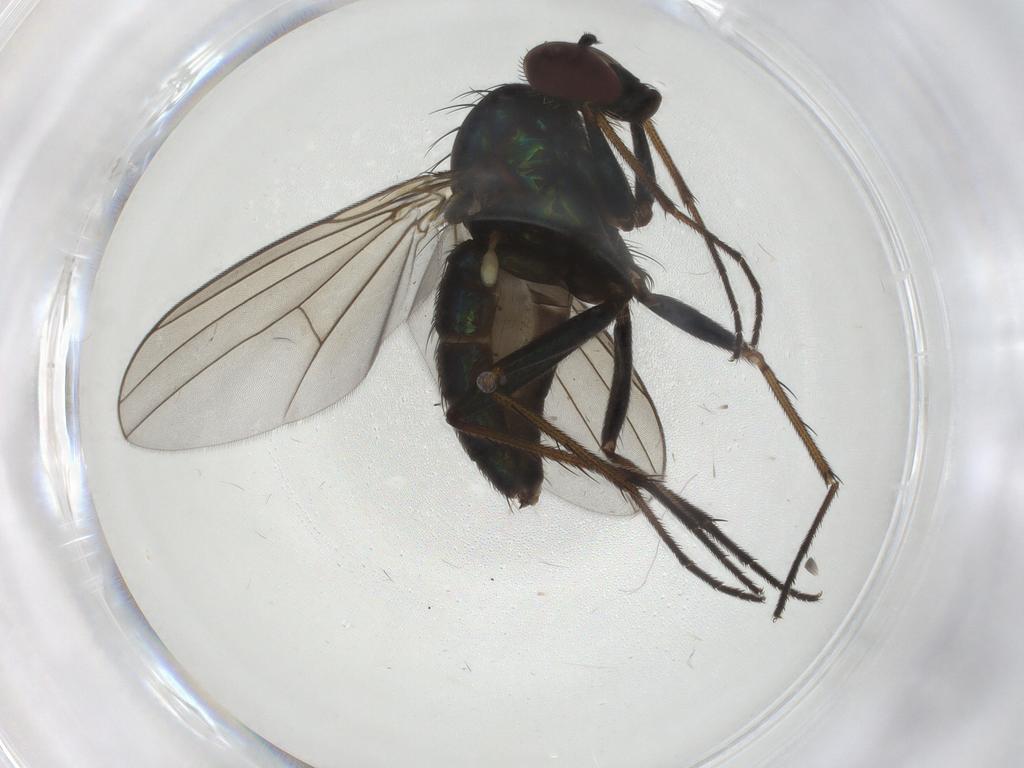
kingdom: Animalia
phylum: Arthropoda
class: Insecta
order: Diptera
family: Dolichopodidae
